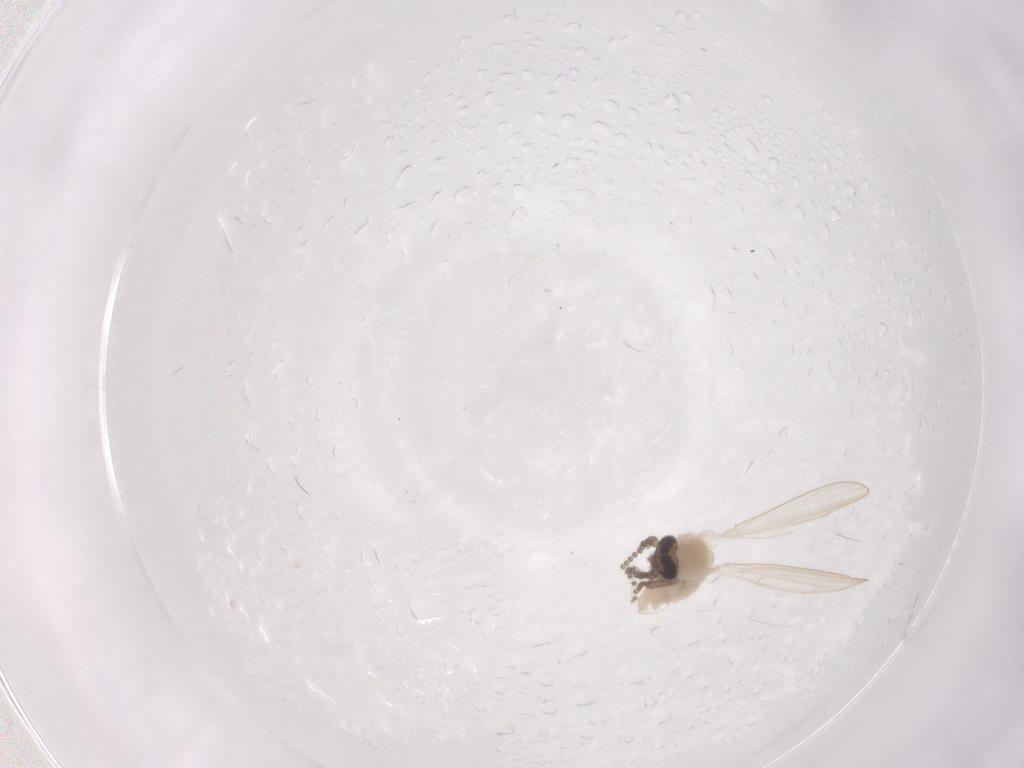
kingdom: Animalia
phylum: Arthropoda
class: Insecta
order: Diptera
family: Psychodidae
